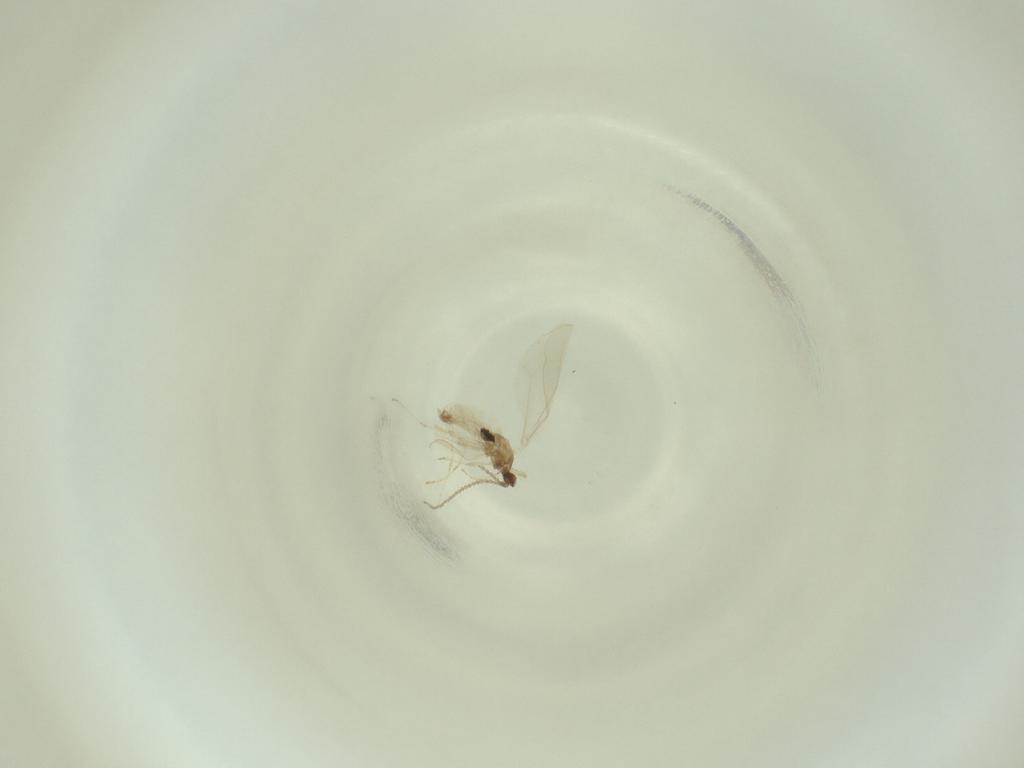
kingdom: Animalia
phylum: Arthropoda
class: Insecta
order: Diptera
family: Cecidomyiidae
